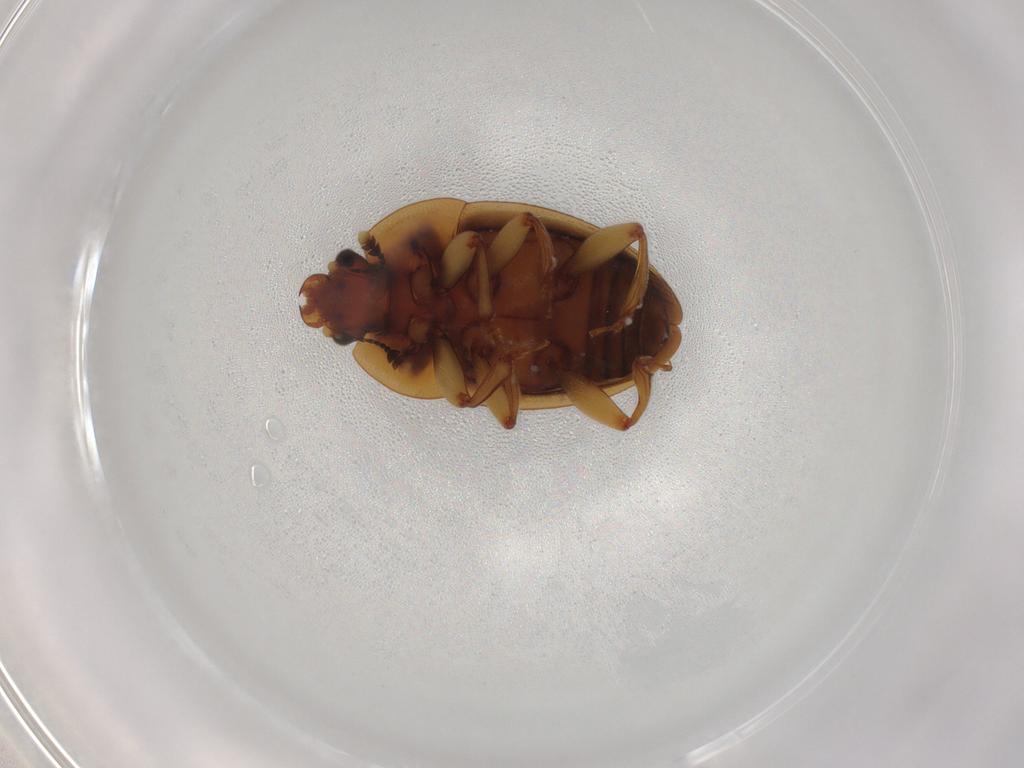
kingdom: Animalia
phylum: Arthropoda
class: Insecta
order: Coleoptera
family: Nitidulidae
